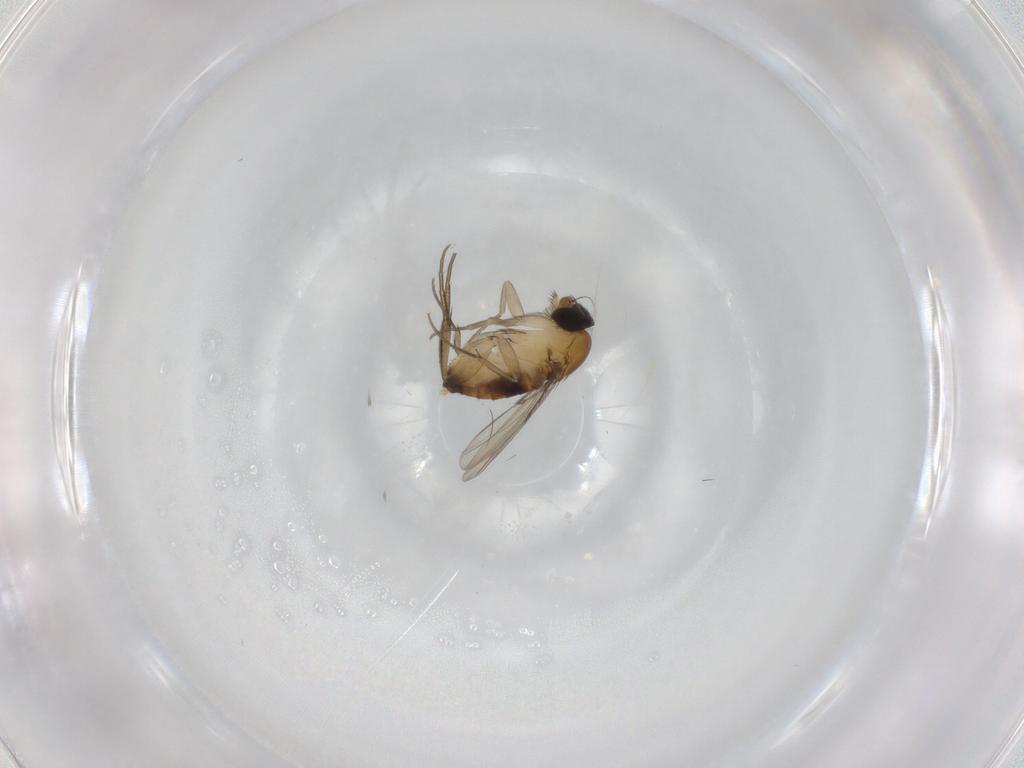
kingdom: Animalia
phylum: Arthropoda
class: Insecta
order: Diptera
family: Phoridae
